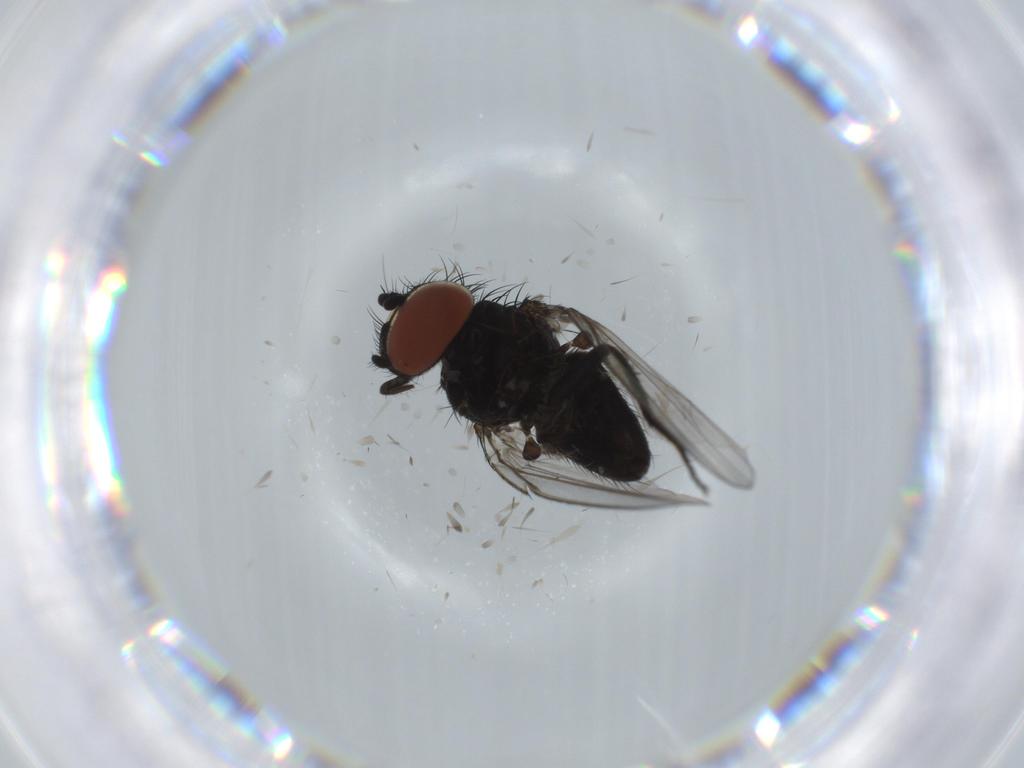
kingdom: Animalia
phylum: Arthropoda
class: Insecta
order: Diptera
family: Milichiidae
